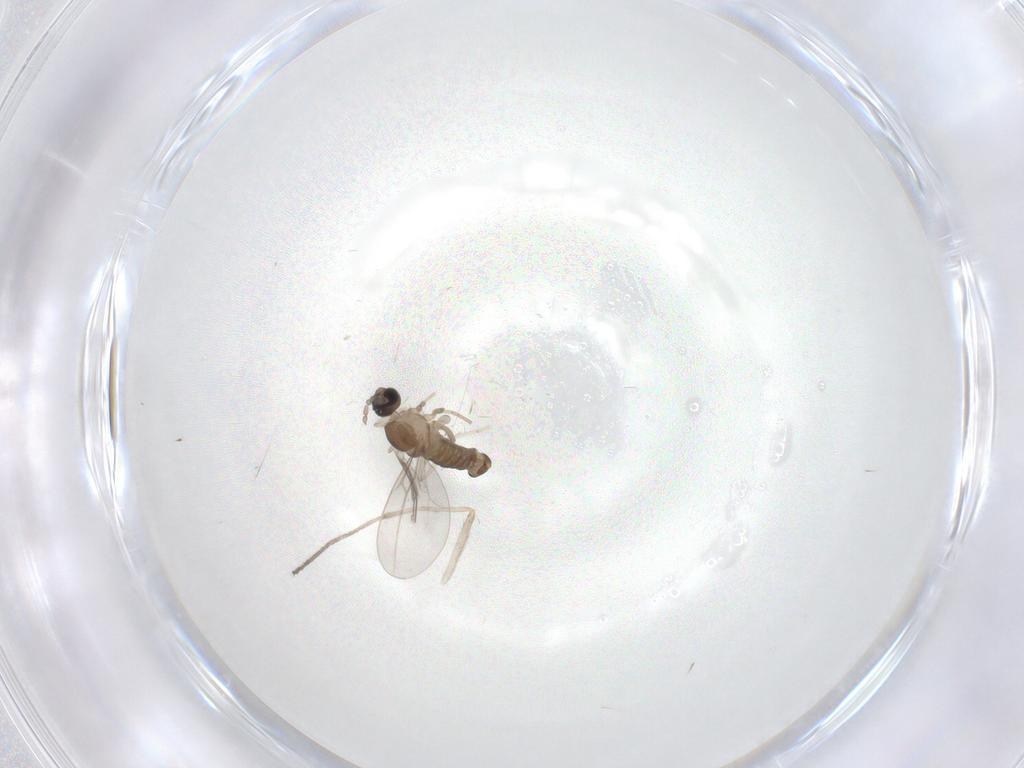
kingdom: Animalia
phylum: Arthropoda
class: Insecta
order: Diptera
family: Chironomidae
